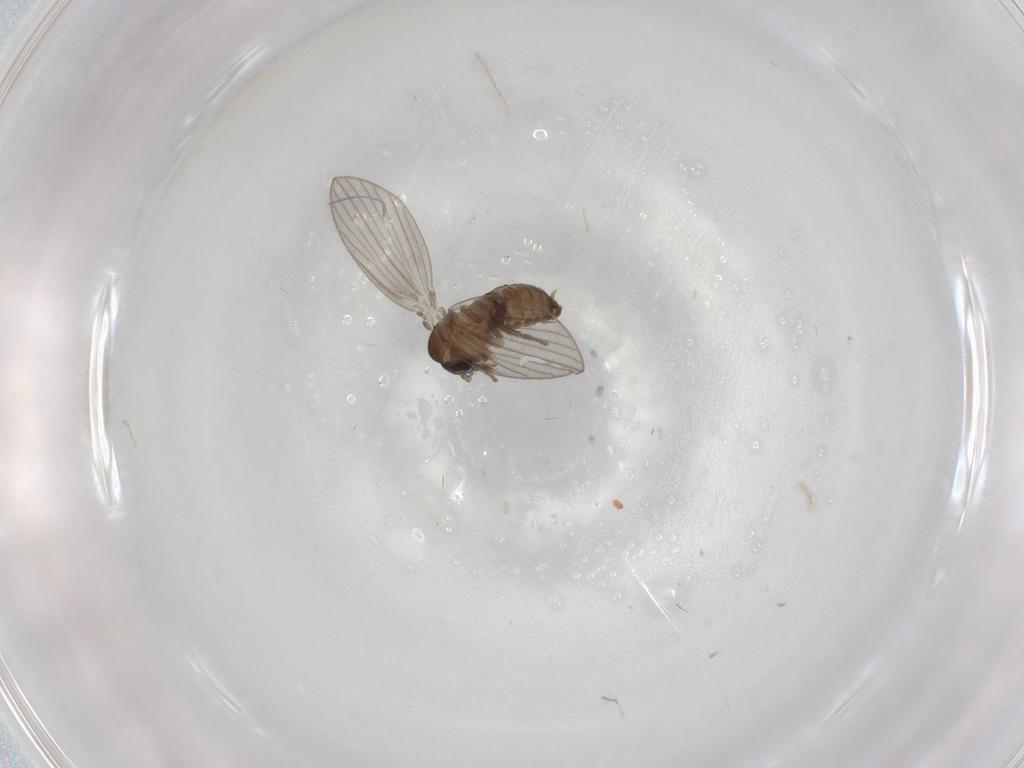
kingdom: Animalia
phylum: Arthropoda
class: Insecta
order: Diptera
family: Psychodidae
